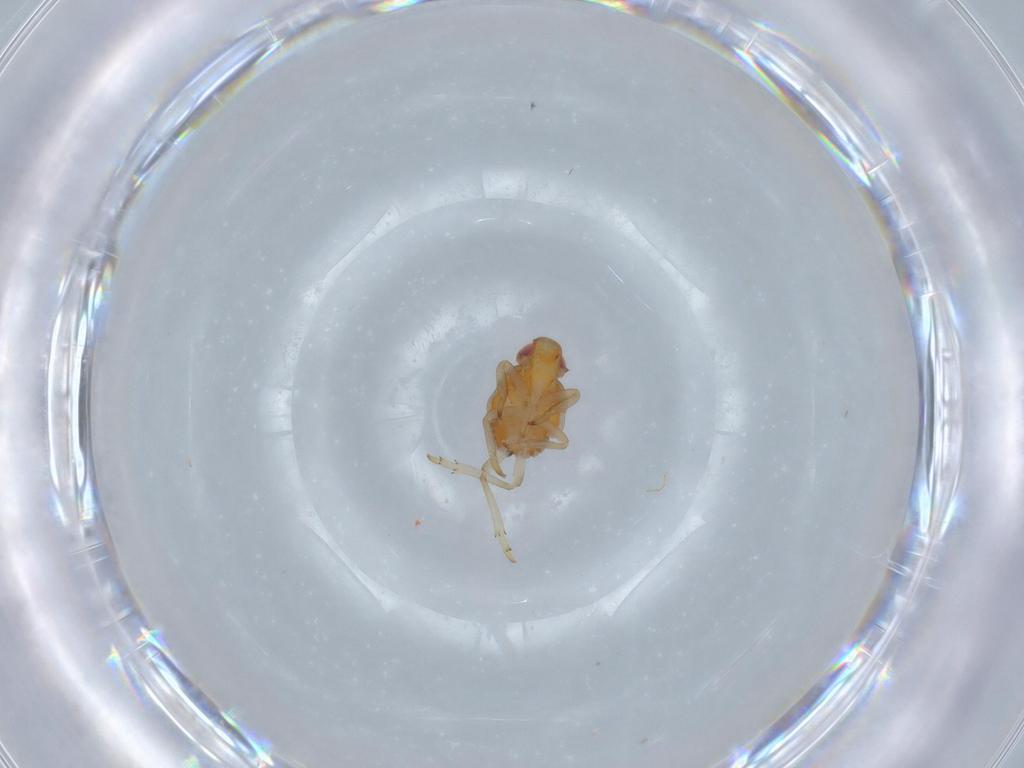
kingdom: Animalia
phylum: Arthropoda
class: Insecta
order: Hemiptera
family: Fulgoroidea_incertae_sedis
